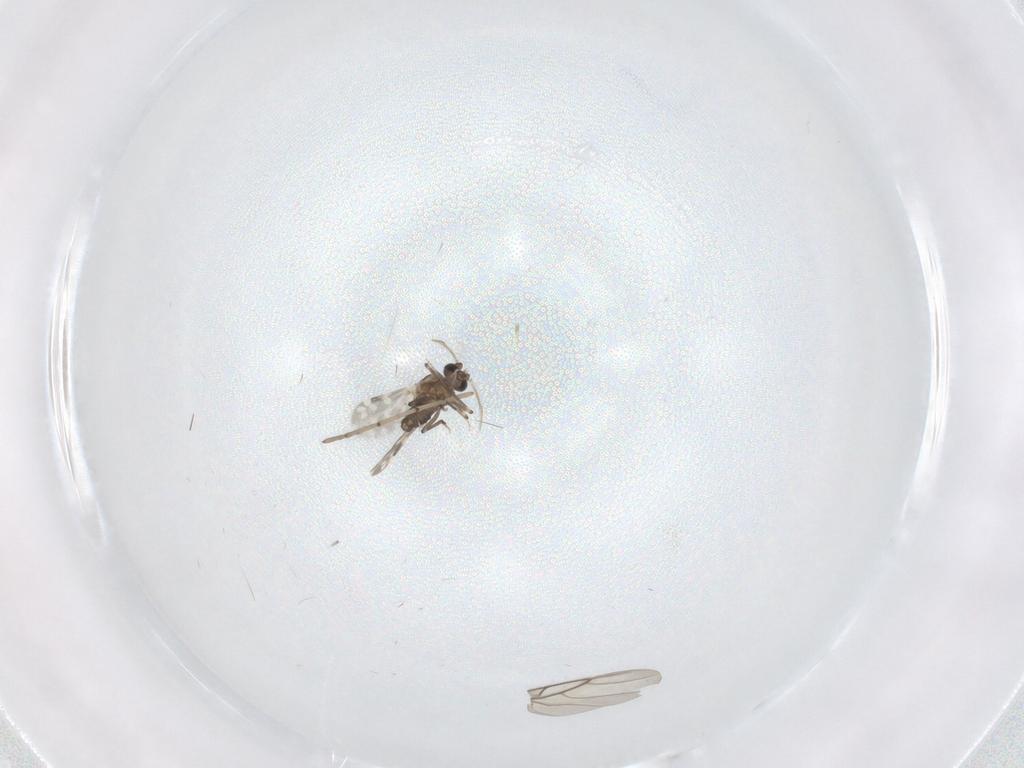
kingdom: Animalia
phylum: Arthropoda
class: Insecta
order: Diptera
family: Ceratopogonidae
